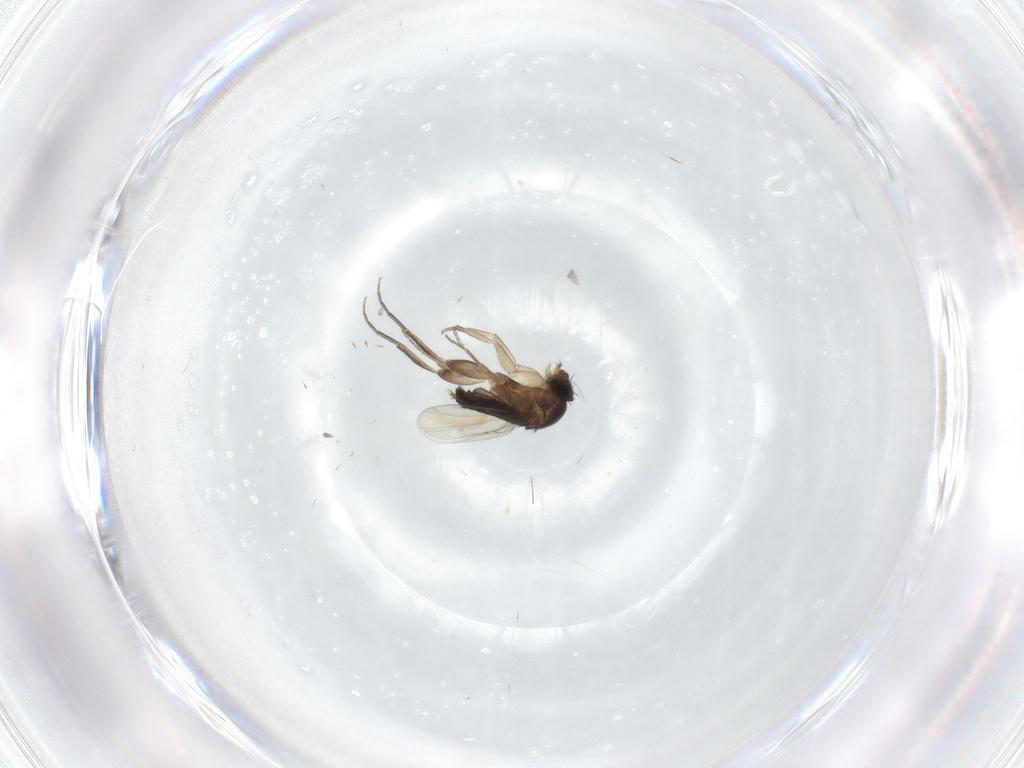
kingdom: Animalia
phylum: Arthropoda
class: Insecta
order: Diptera
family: Phoridae
